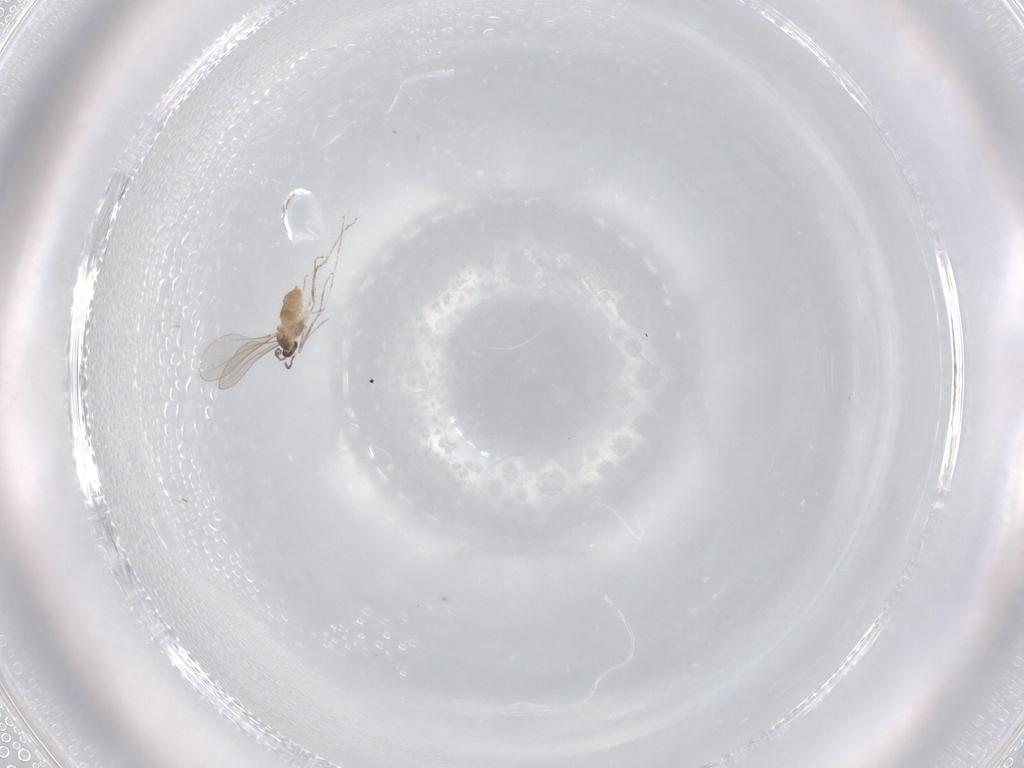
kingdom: Animalia
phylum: Arthropoda
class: Insecta
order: Diptera
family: Cecidomyiidae
